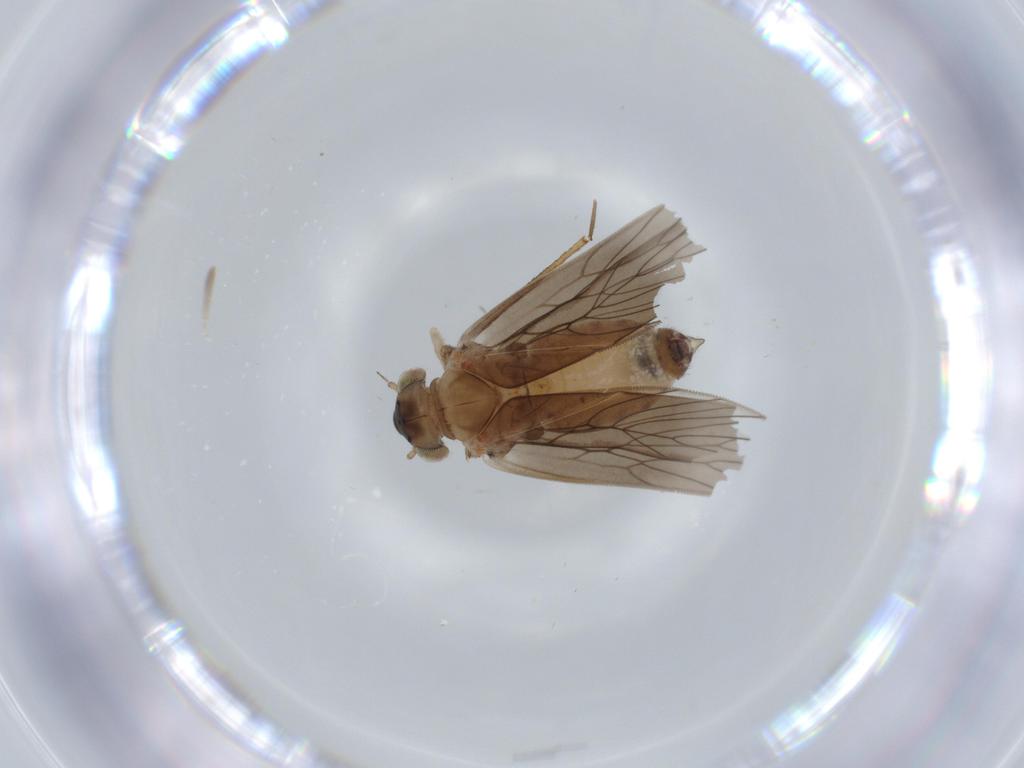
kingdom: Animalia
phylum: Arthropoda
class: Insecta
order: Psocodea
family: Lepidopsocidae
